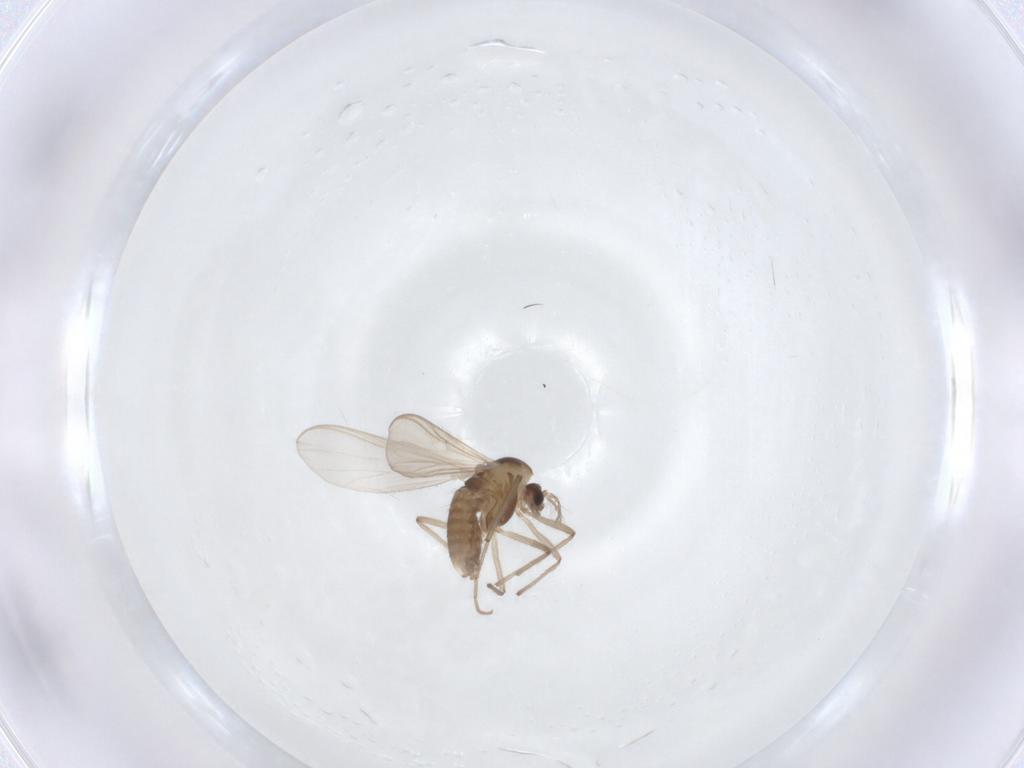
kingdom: Animalia
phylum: Arthropoda
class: Insecta
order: Diptera
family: Chironomidae
